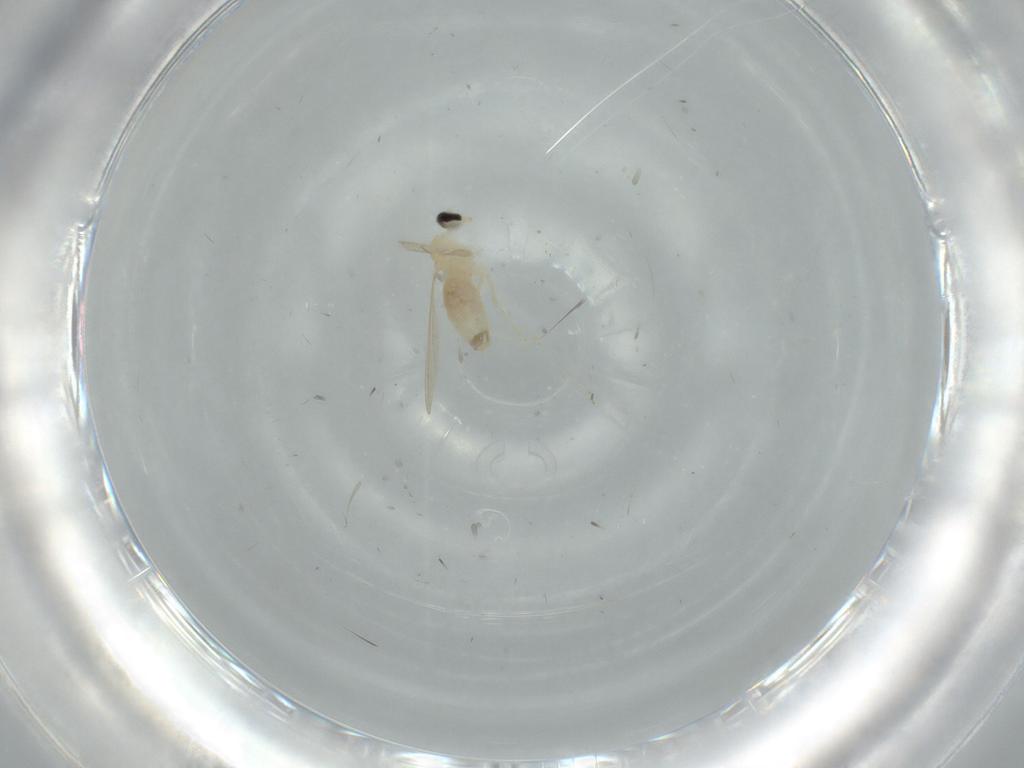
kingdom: Animalia
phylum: Arthropoda
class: Insecta
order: Diptera
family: Cecidomyiidae
